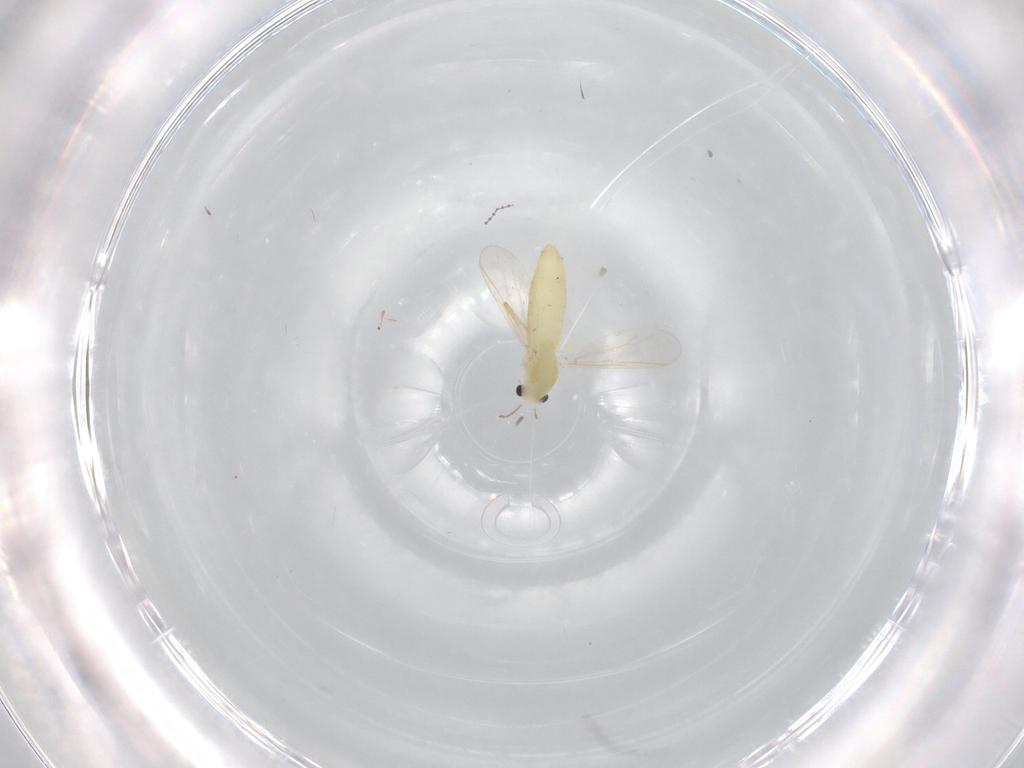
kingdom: Animalia
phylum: Arthropoda
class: Insecta
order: Diptera
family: Chironomidae
